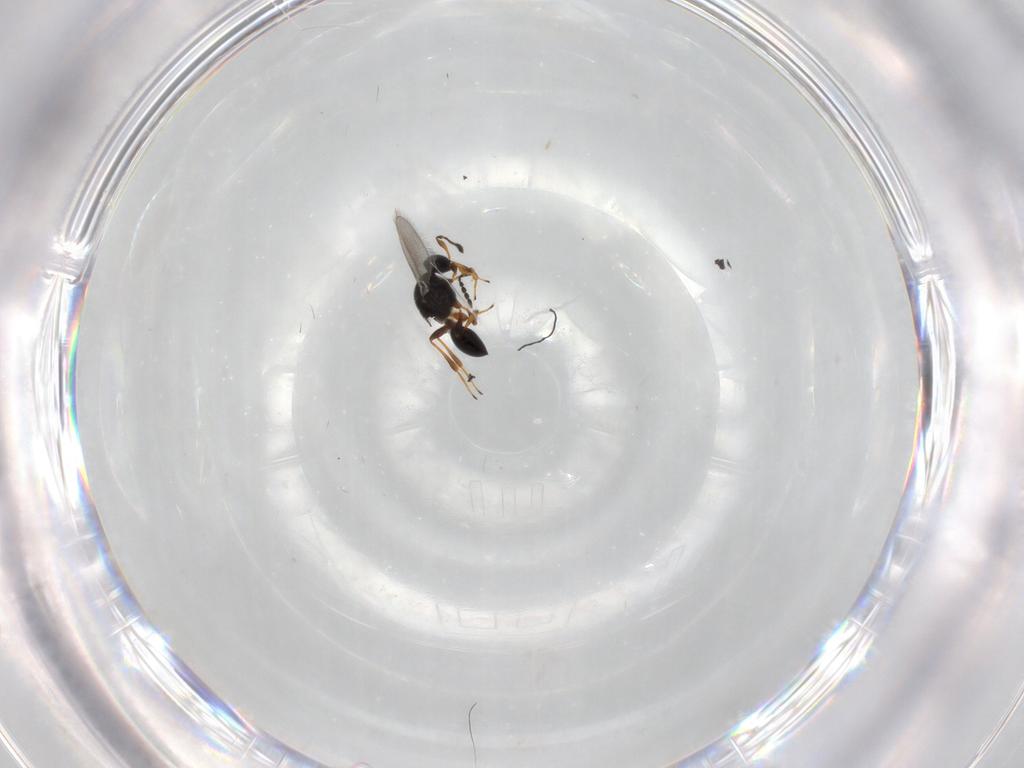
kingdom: Animalia
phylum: Arthropoda
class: Insecta
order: Hymenoptera
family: Platygastridae
